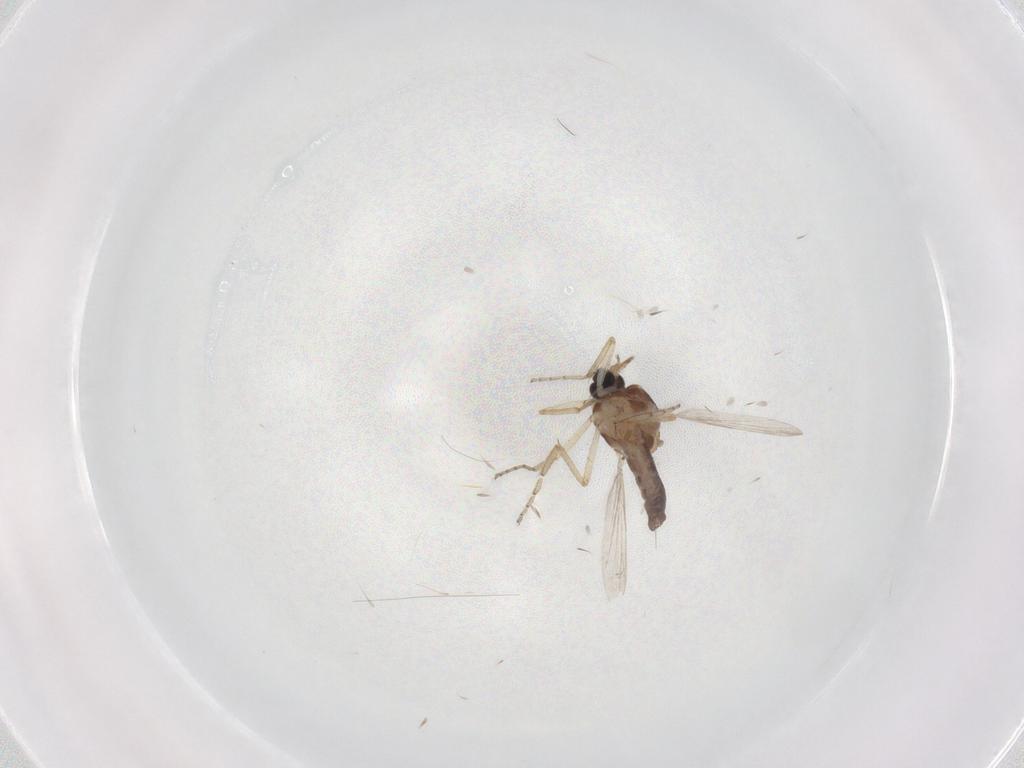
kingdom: Animalia
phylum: Arthropoda
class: Insecta
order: Diptera
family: Ceratopogonidae
